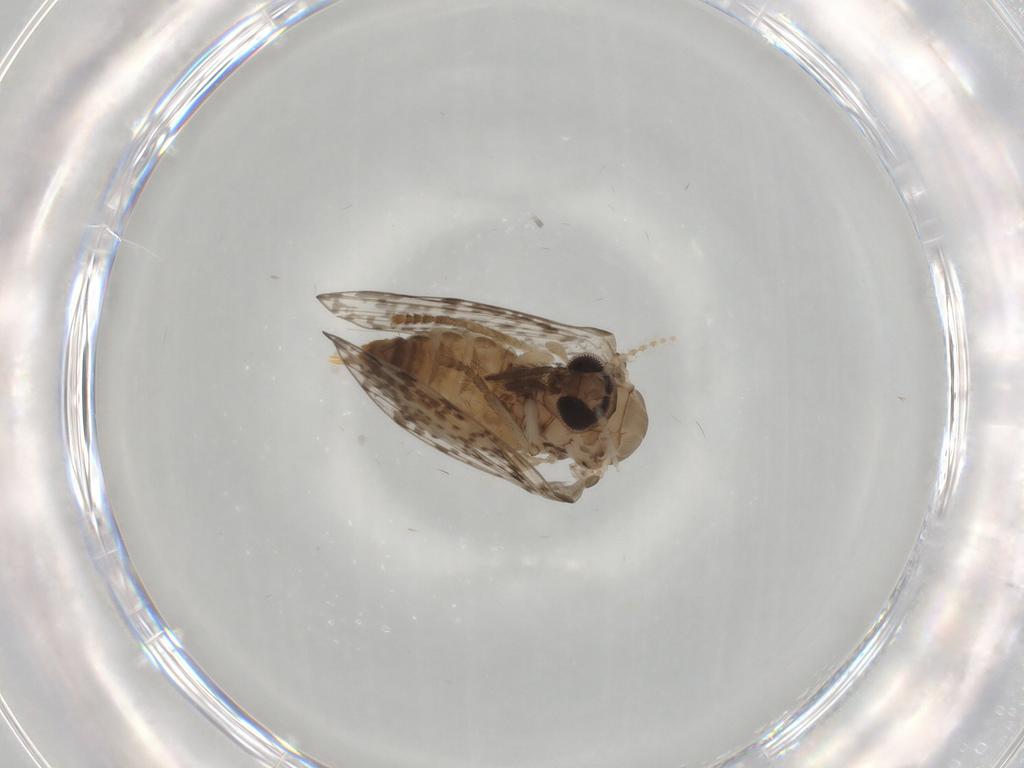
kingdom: Animalia
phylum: Arthropoda
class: Insecta
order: Diptera
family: Psychodidae
